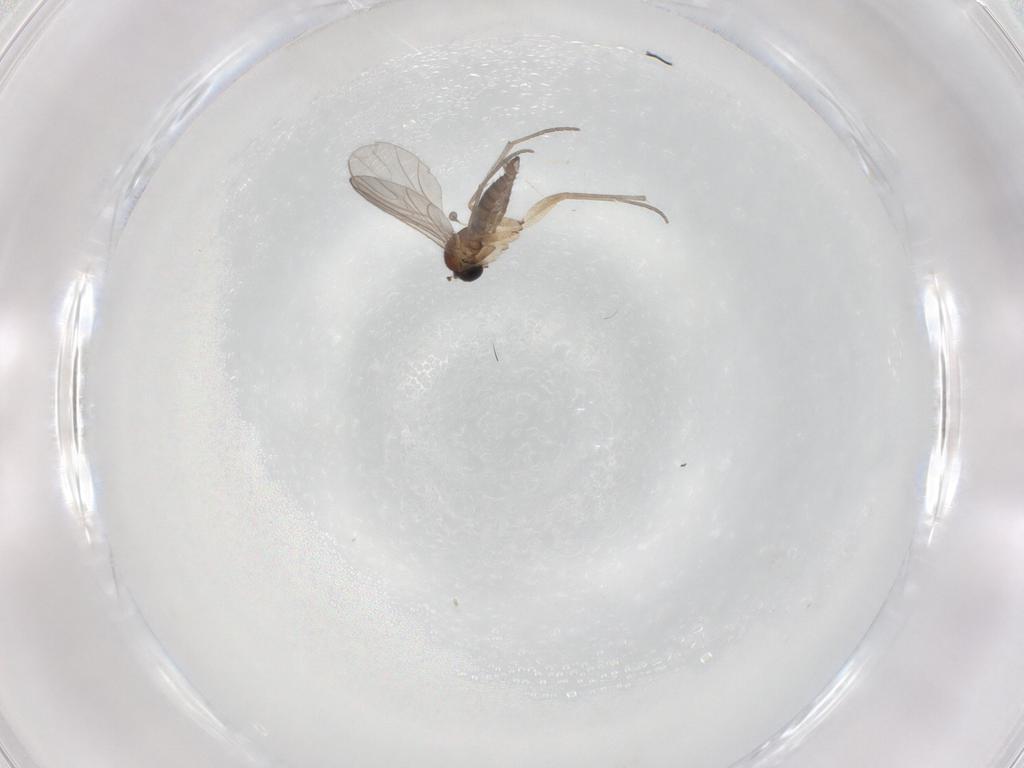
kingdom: Animalia
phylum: Arthropoda
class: Insecta
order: Diptera
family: Sciaridae
